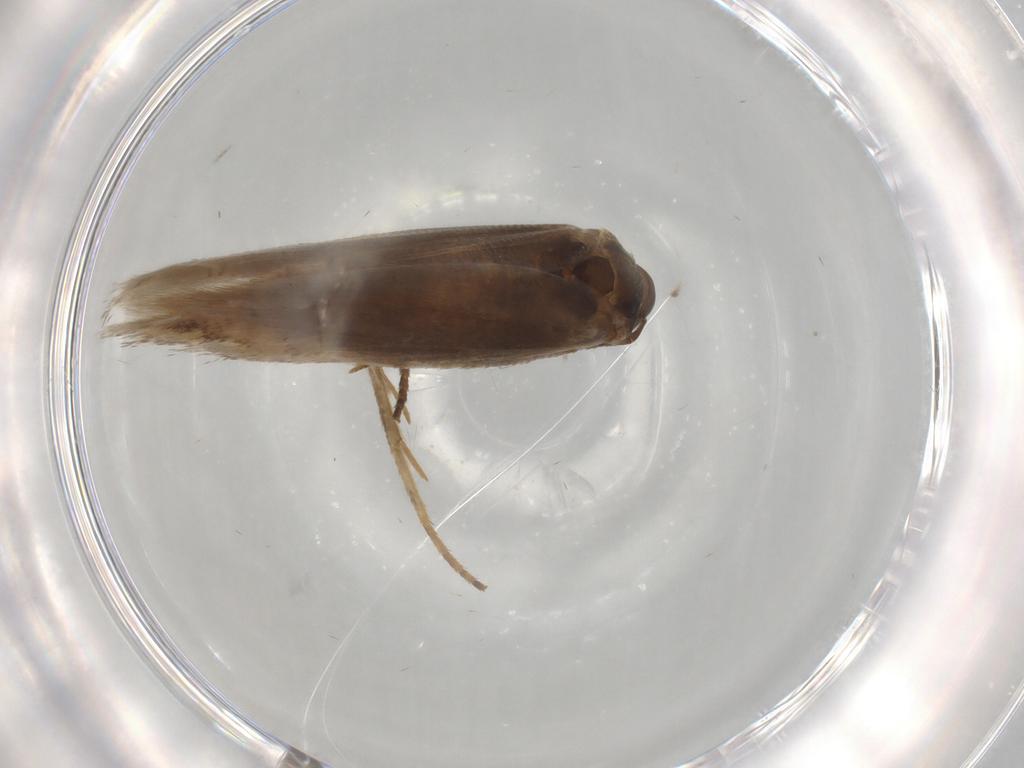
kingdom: Animalia
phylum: Arthropoda
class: Insecta
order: Lepidoptera
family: Gelechiidae
